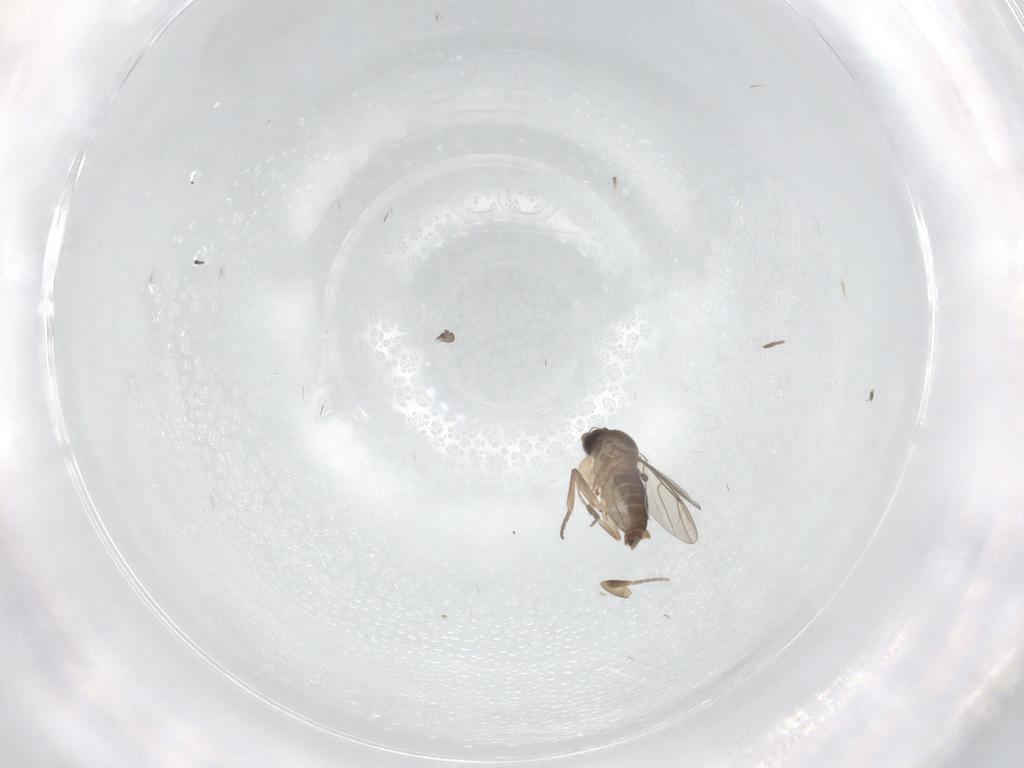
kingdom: Animalia
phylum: Arthropoda
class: Insecta
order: Diptera
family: Phoridae
